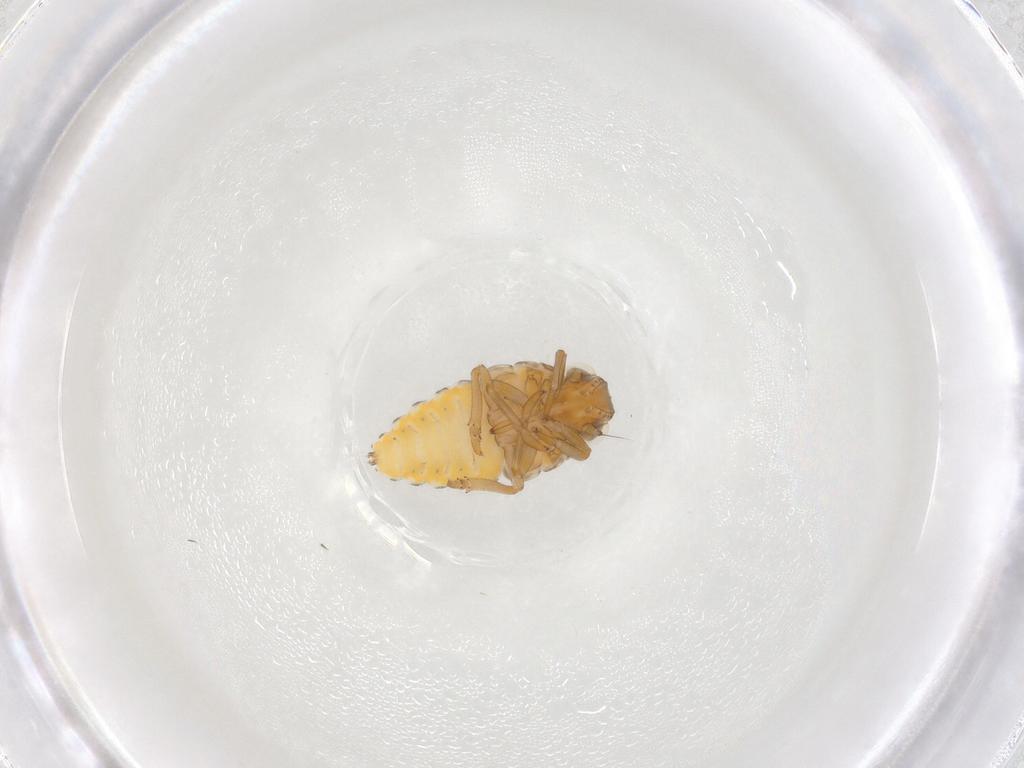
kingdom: Animalia
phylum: Arthropoda
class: Insecta
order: Hemiptera
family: Issidae
